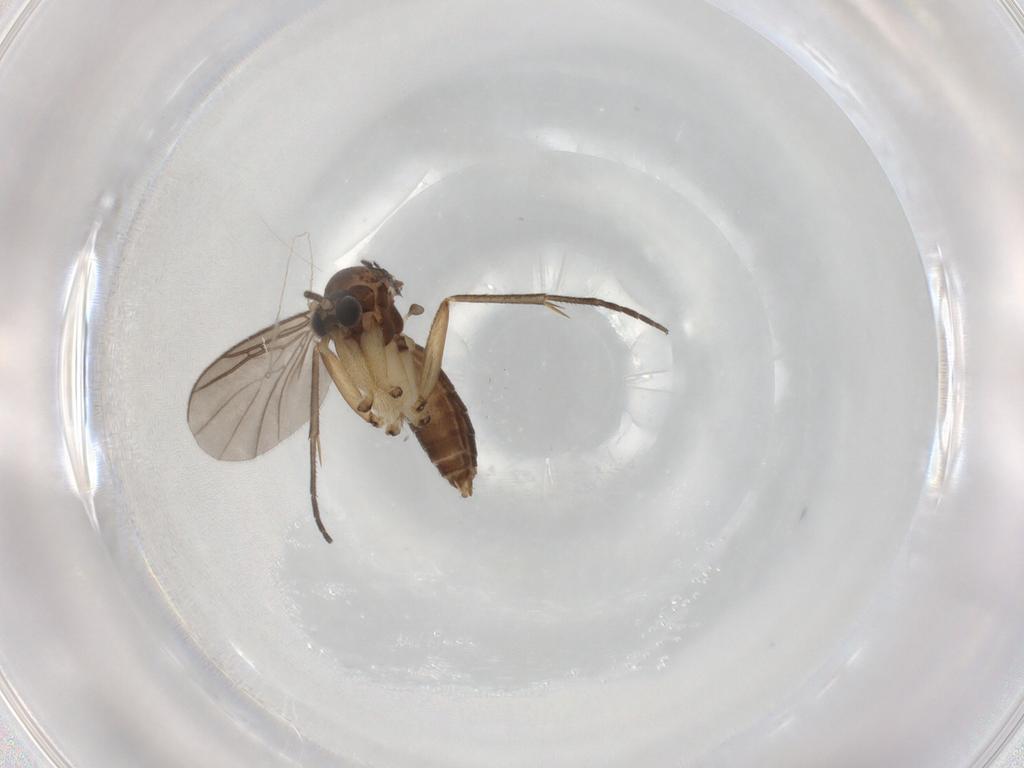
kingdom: Animalia
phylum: Arthropoda
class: Insecta
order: Diptera
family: Mycetophilidae
